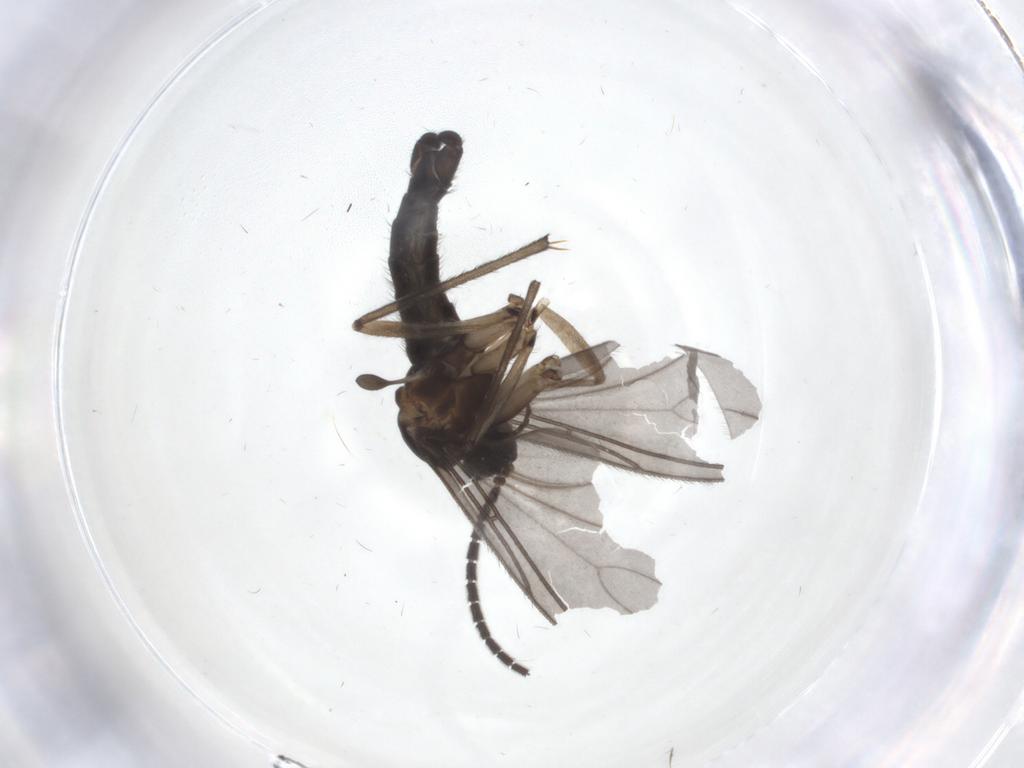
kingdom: Animalia
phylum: Arthropoda
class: Insecta
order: Diptera
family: Sciaridae
